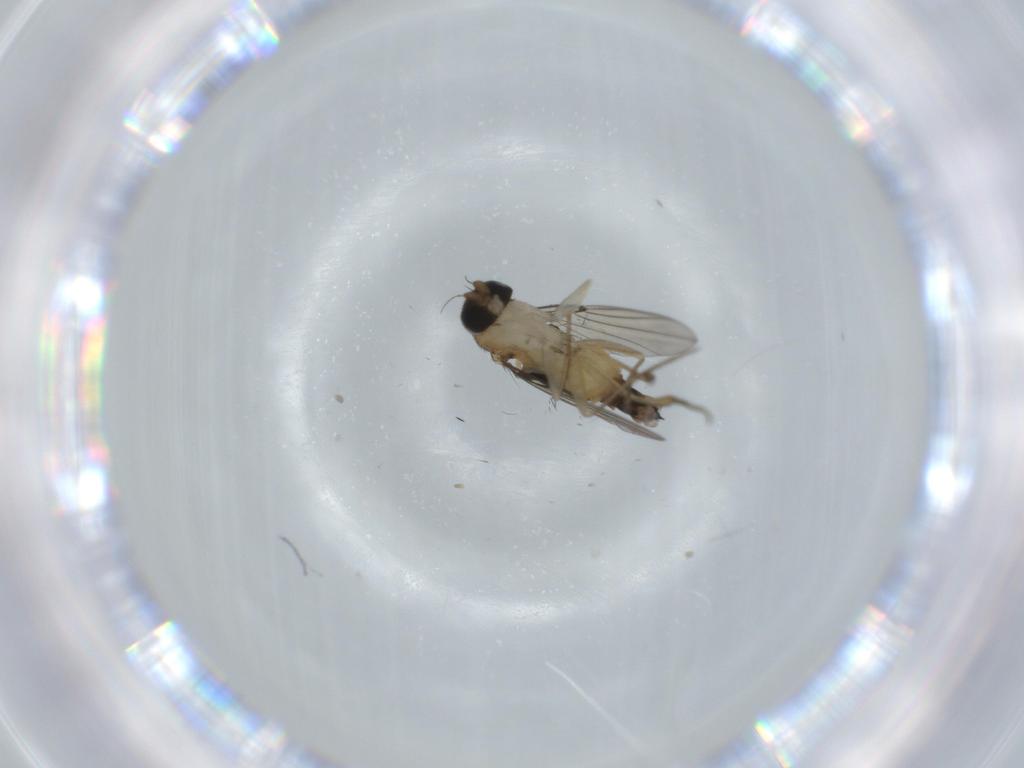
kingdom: Animalia
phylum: Arthropoda
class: Insecta
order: Diptera
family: Phoridae
